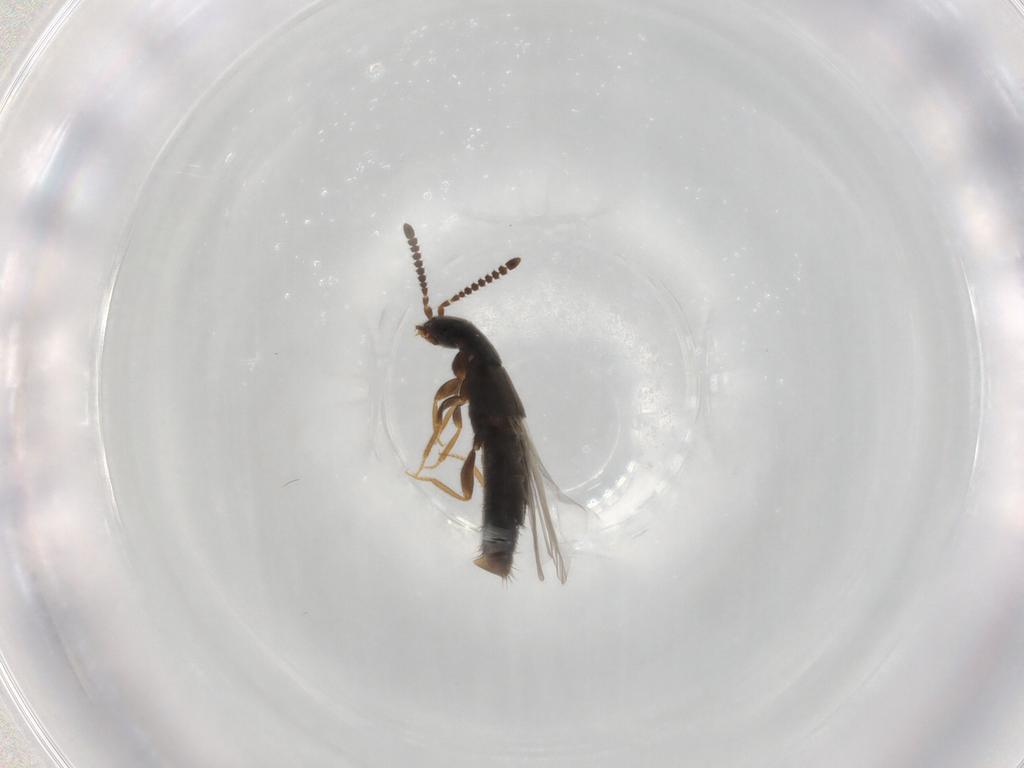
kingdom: Animalia
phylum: Arthropoda
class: Insecta
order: Coleoptera
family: Staphylinidae
